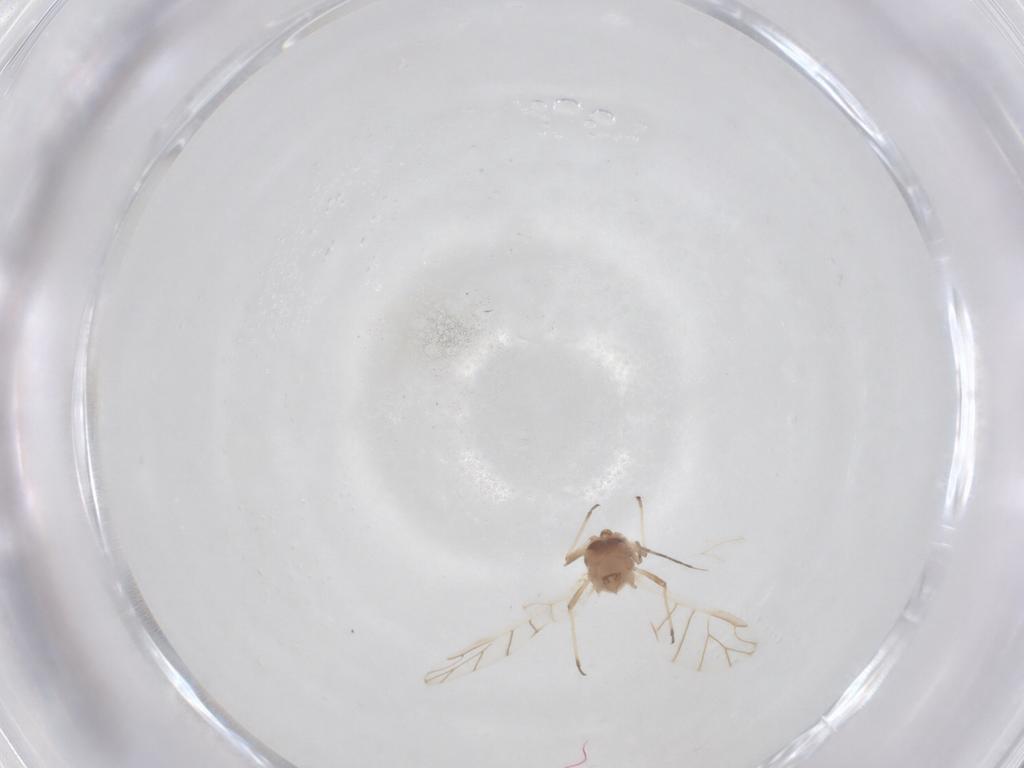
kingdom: Animalia
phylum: Arthropoda
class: Insecta
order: Hemiptera
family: Aphididae
